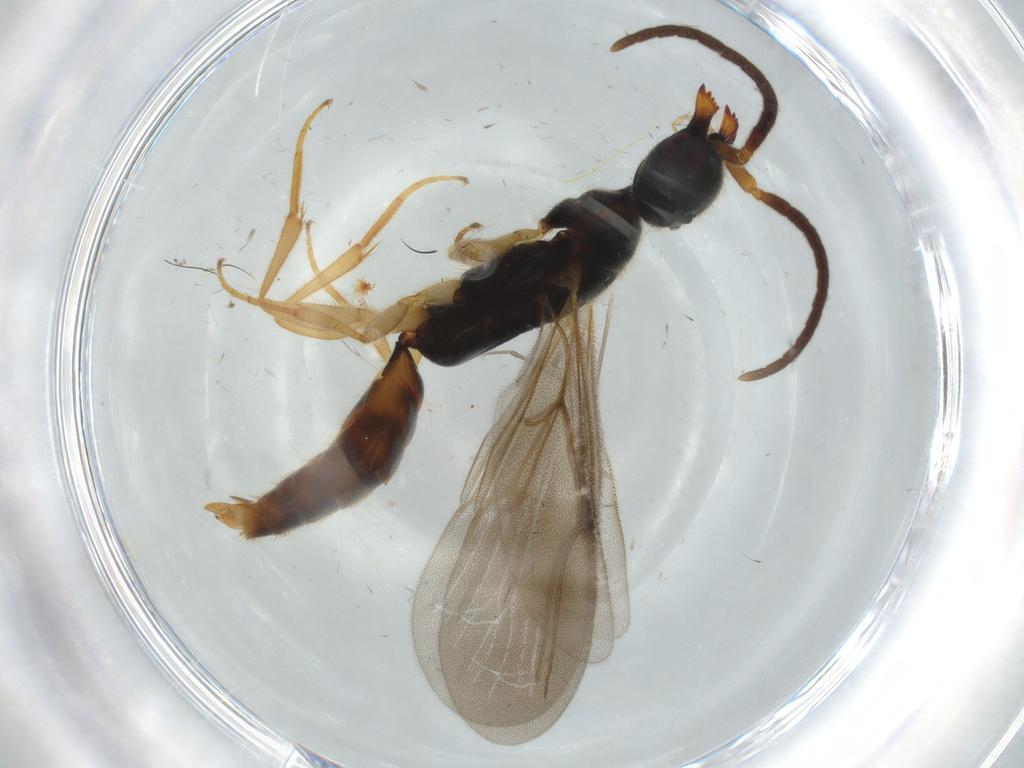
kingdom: Animalia
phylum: Arthropoda
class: Insecta
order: Hymenoptera
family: Bethylidae
